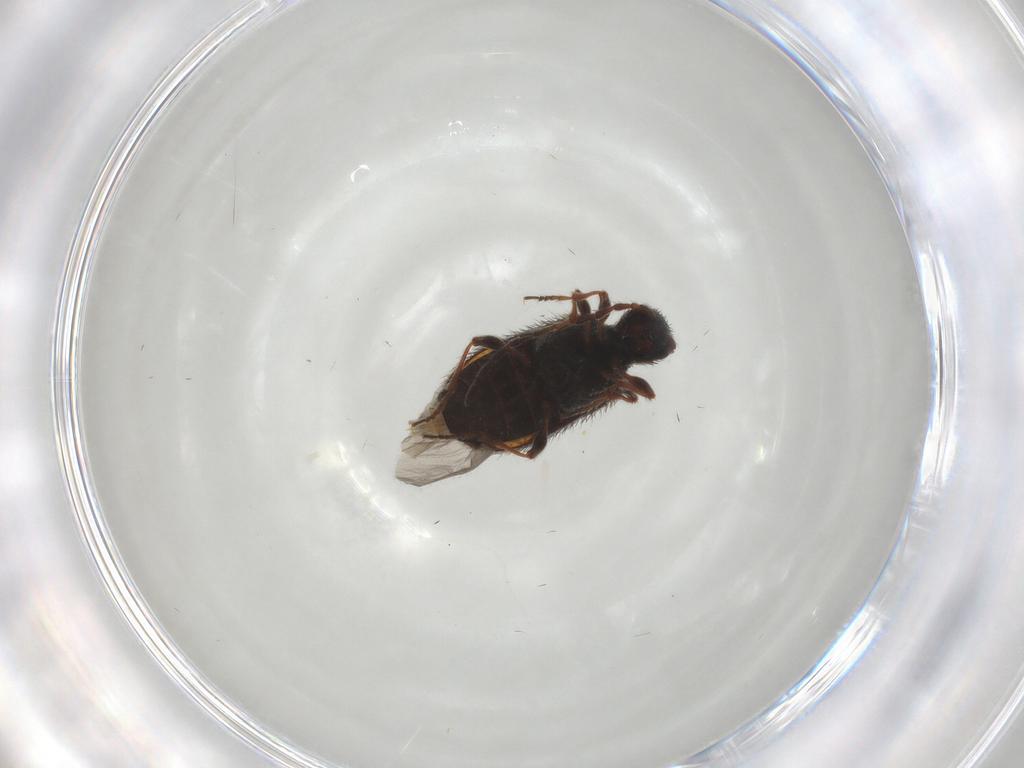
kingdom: Animalia
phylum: Arthropoda
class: Insecta
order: Coleoptera
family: Ptinidae
